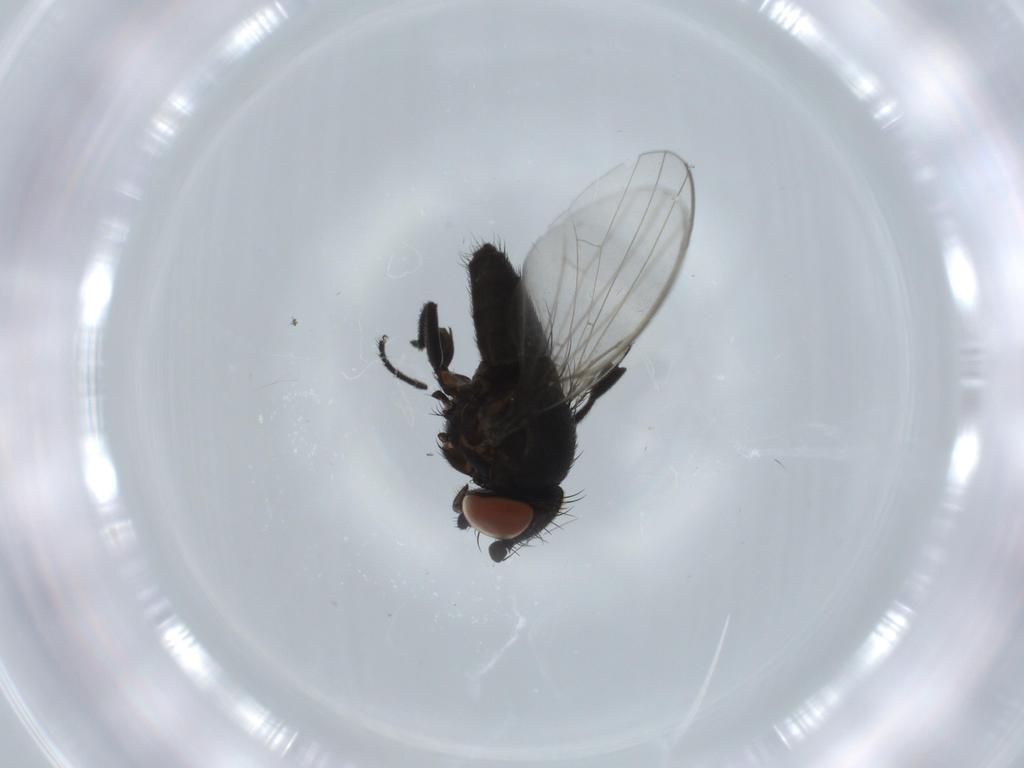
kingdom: Animalia
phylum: Arthropoda
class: Insecta
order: Diptera
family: Milichiidae
